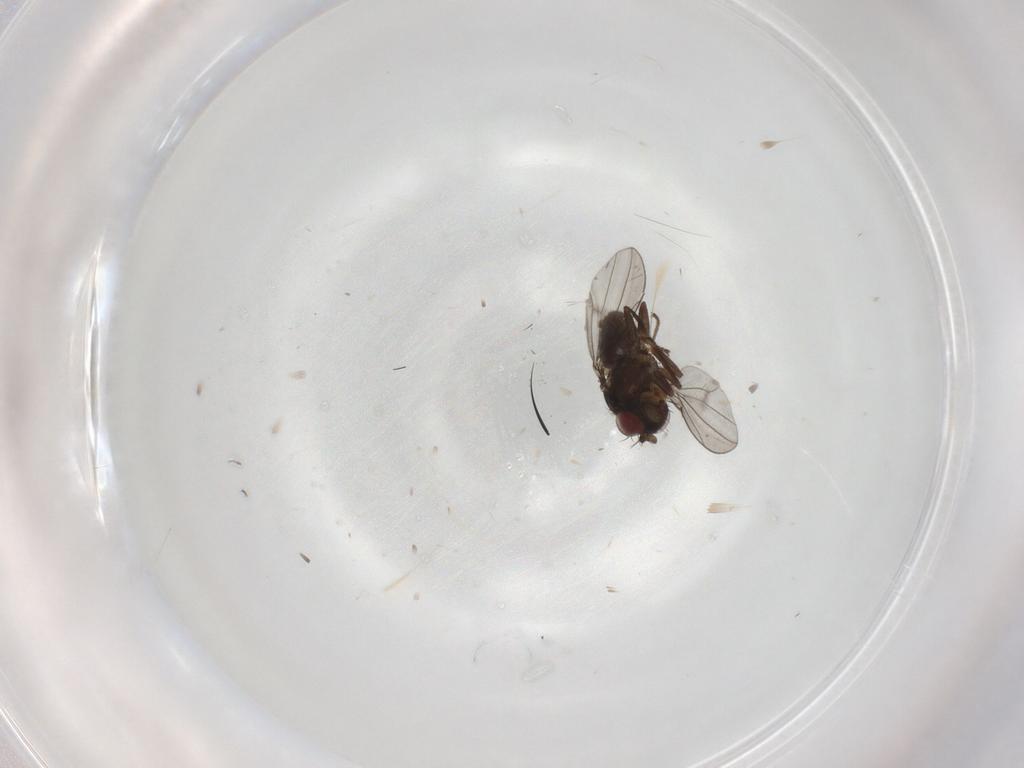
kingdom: Animalia
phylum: Arthropoda
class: Insecta
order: Diptera
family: Ephydridae
